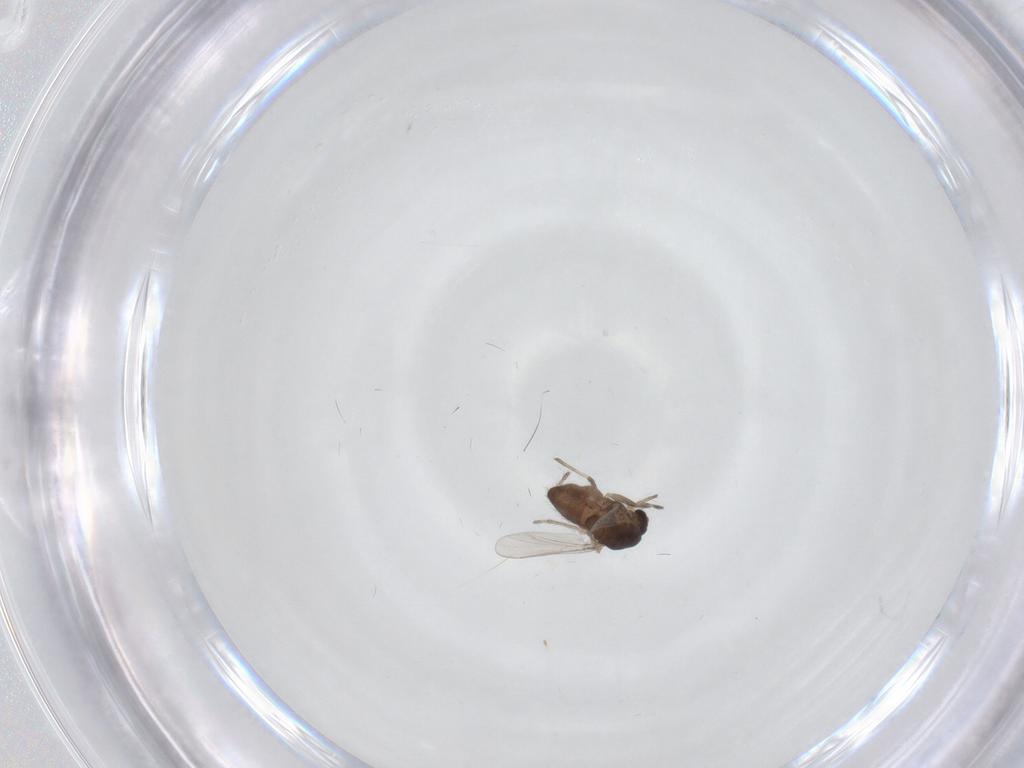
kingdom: Animalia
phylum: Arthropoda
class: Insecta
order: Diptera
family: Chironomidae
